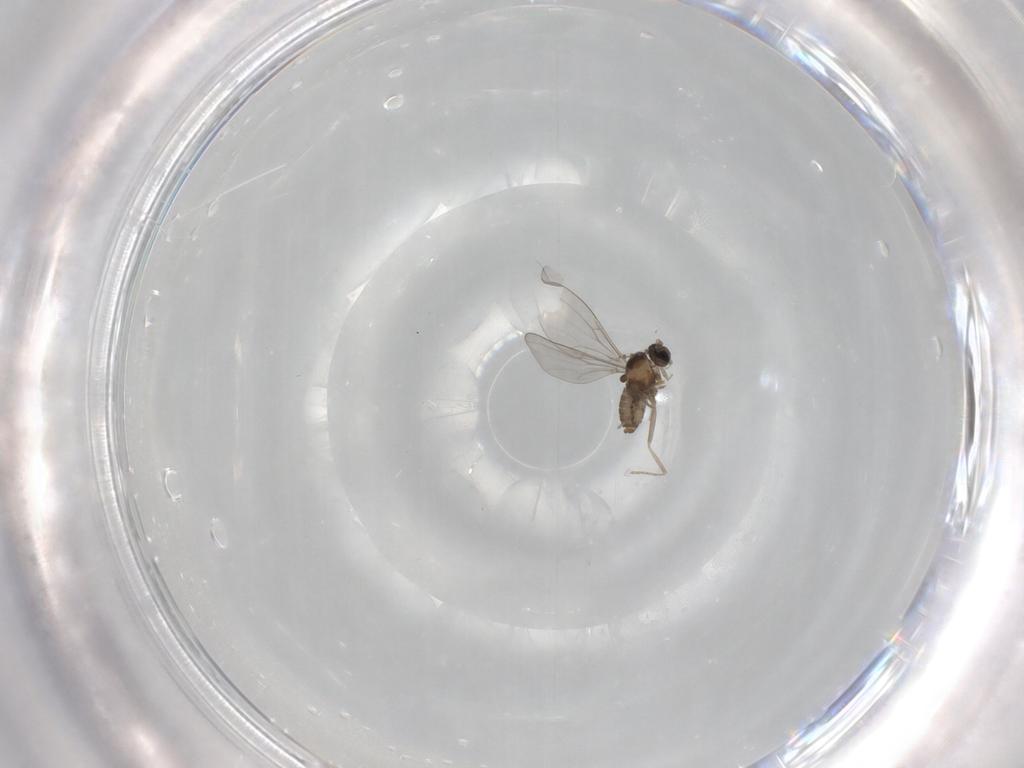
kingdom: Animalia
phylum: Arthropoda
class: Insecta
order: Diptera
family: Cecidomyiidae
